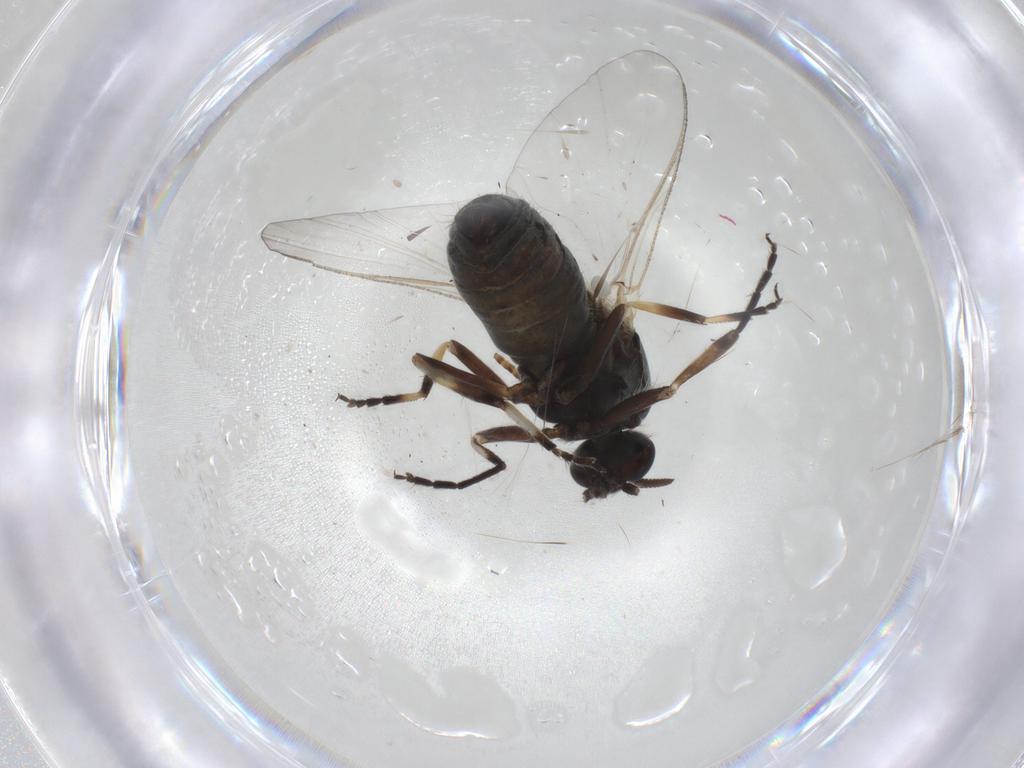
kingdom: Animalia
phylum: Arthropoda
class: Insecta
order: Diptera
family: Simuliidae
